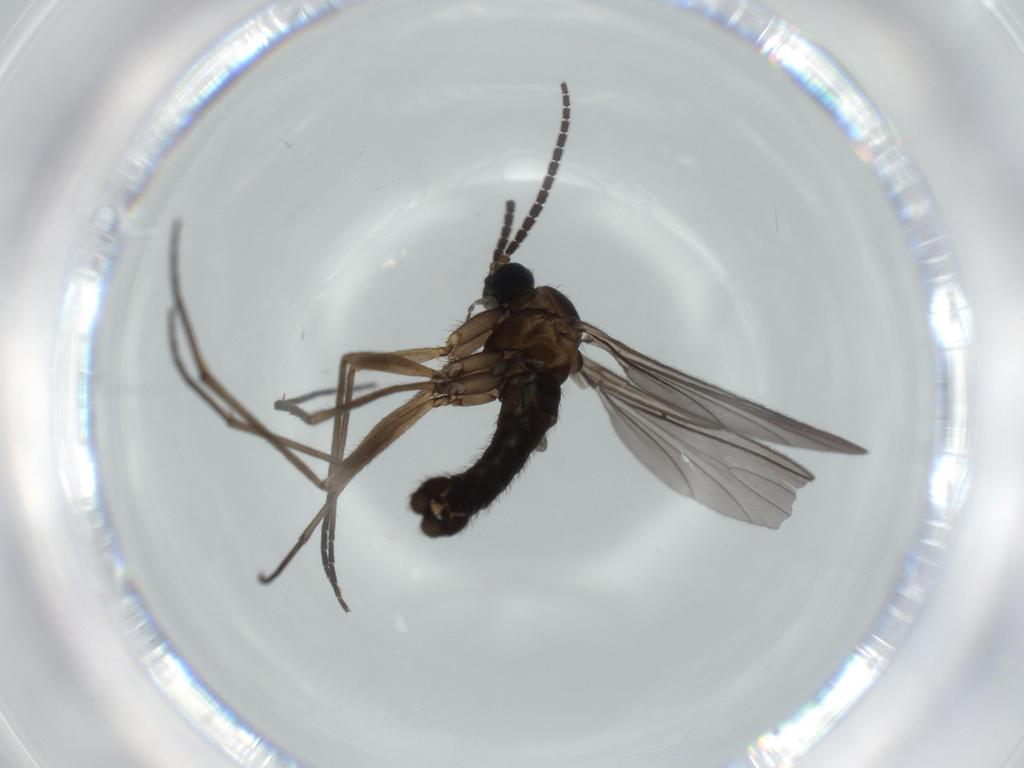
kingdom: Animalia
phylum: Arthropoda
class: Insecta
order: Diptera
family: Sciaridae
